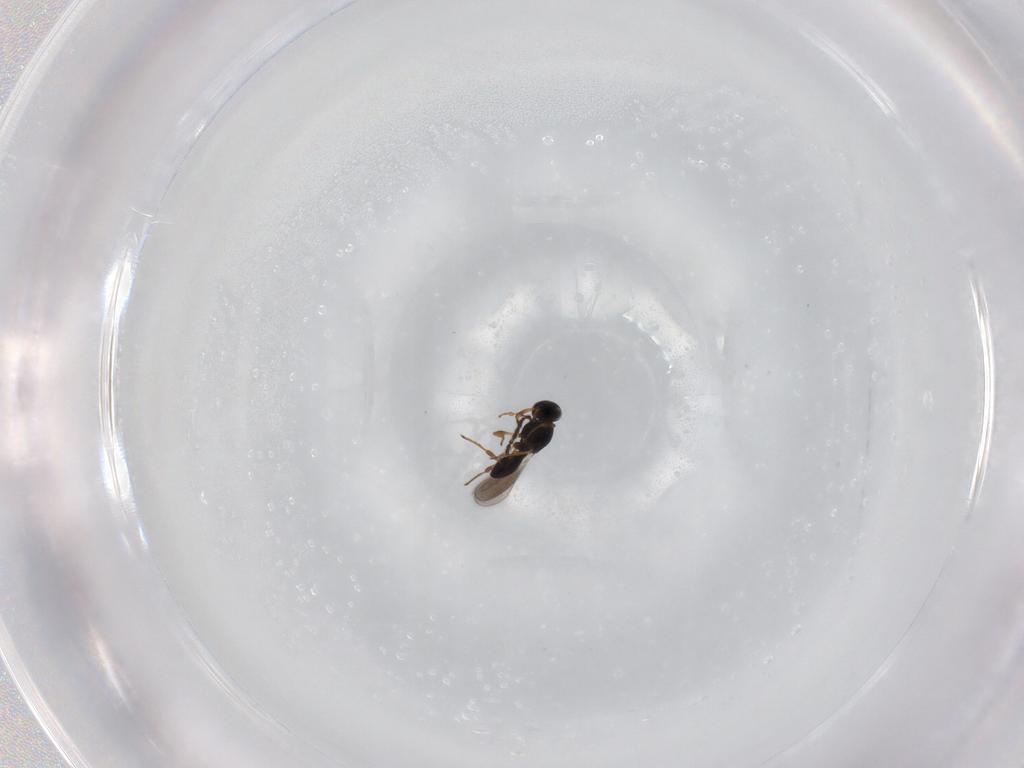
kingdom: Animalia
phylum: Arthropoda
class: Insecta
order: Hymenoptera
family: Platygastridae
